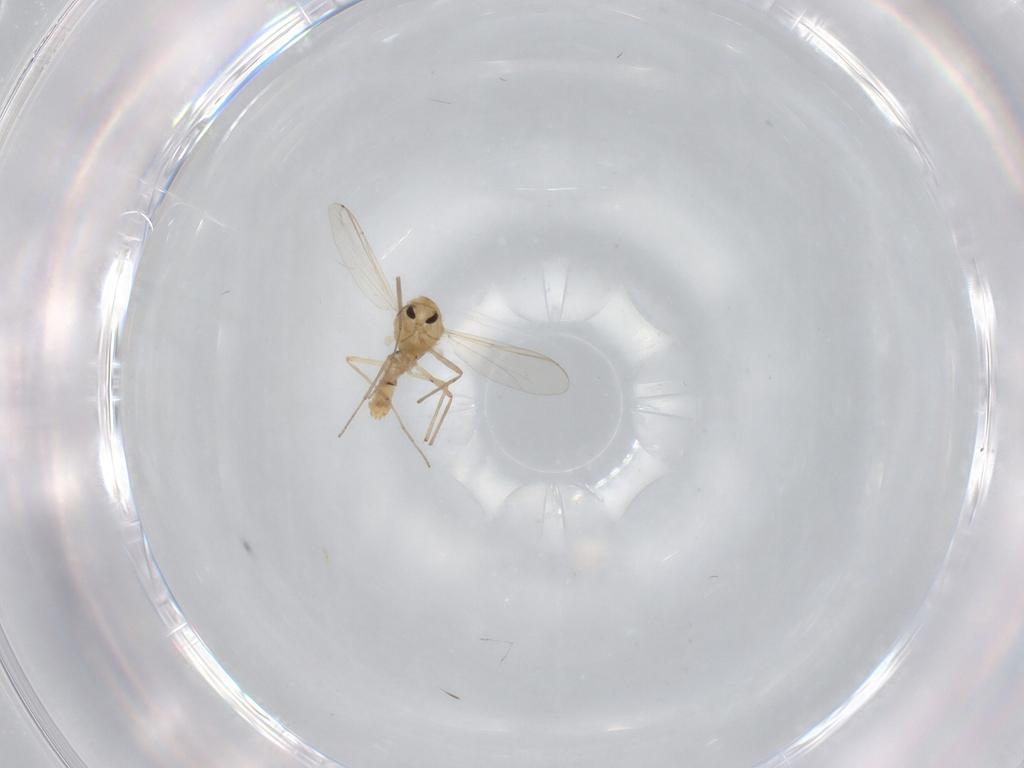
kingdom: Animalia
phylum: Arthropoda
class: Insecta
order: Diptera
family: Chironomidae
